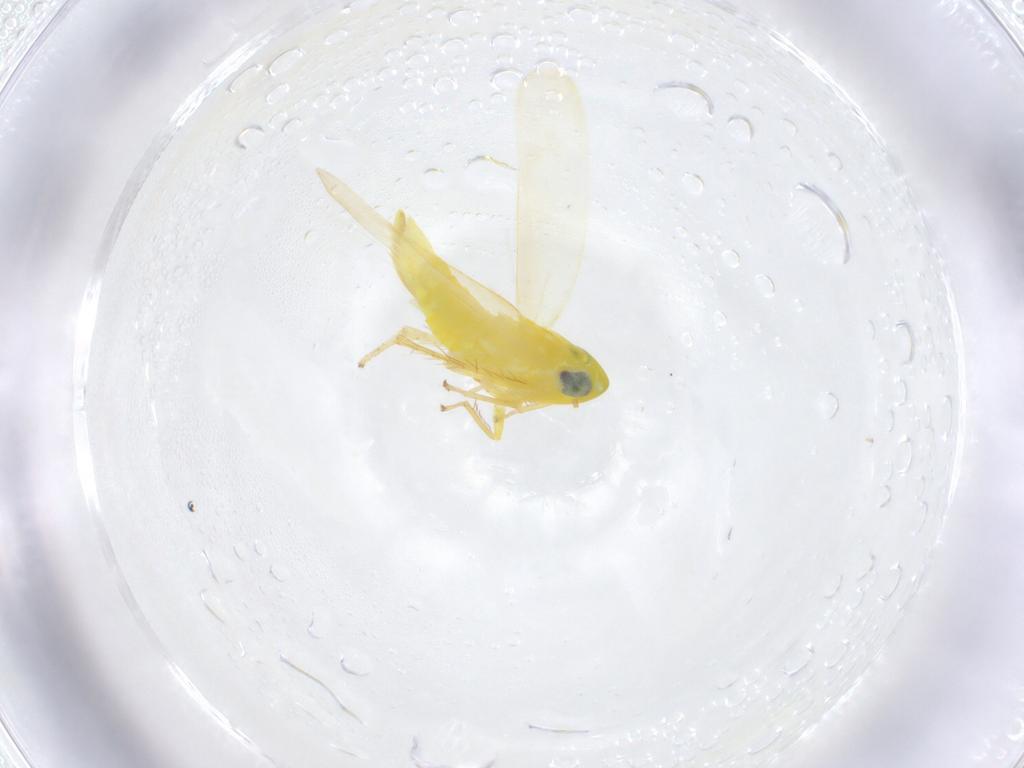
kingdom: Animalia
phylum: Arthropoda
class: Insecta
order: Hemiptera
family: Cicadellidae
